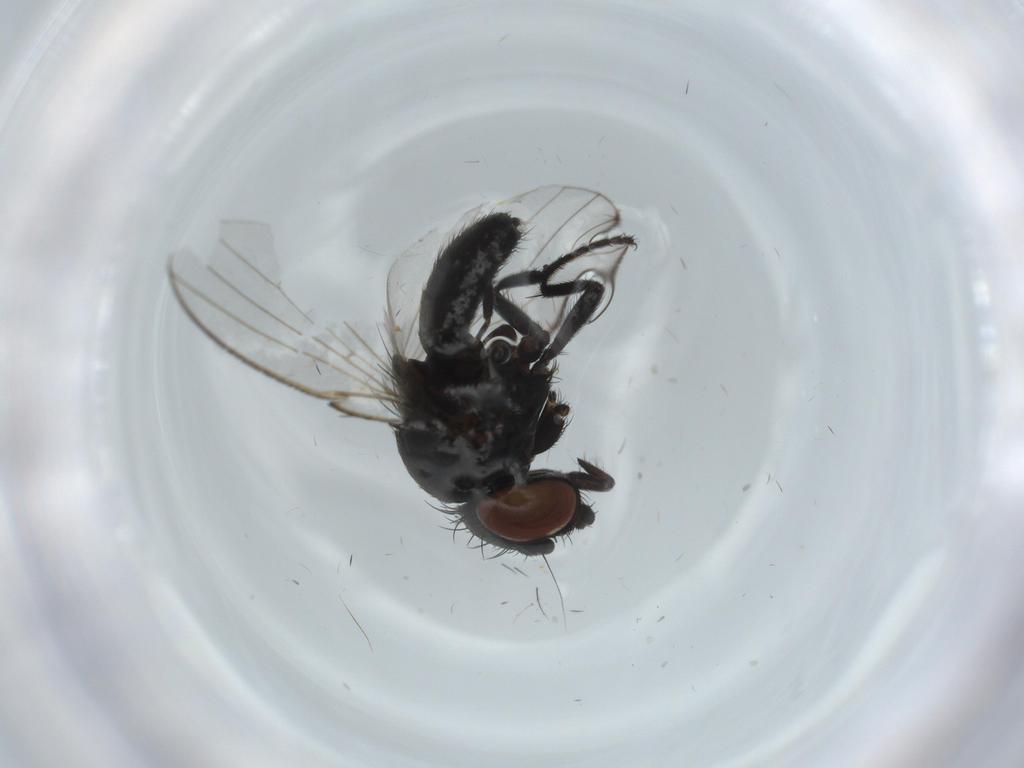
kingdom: Animalia
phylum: Arthropoda
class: Insecta
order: Diptera
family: Milichiidae
